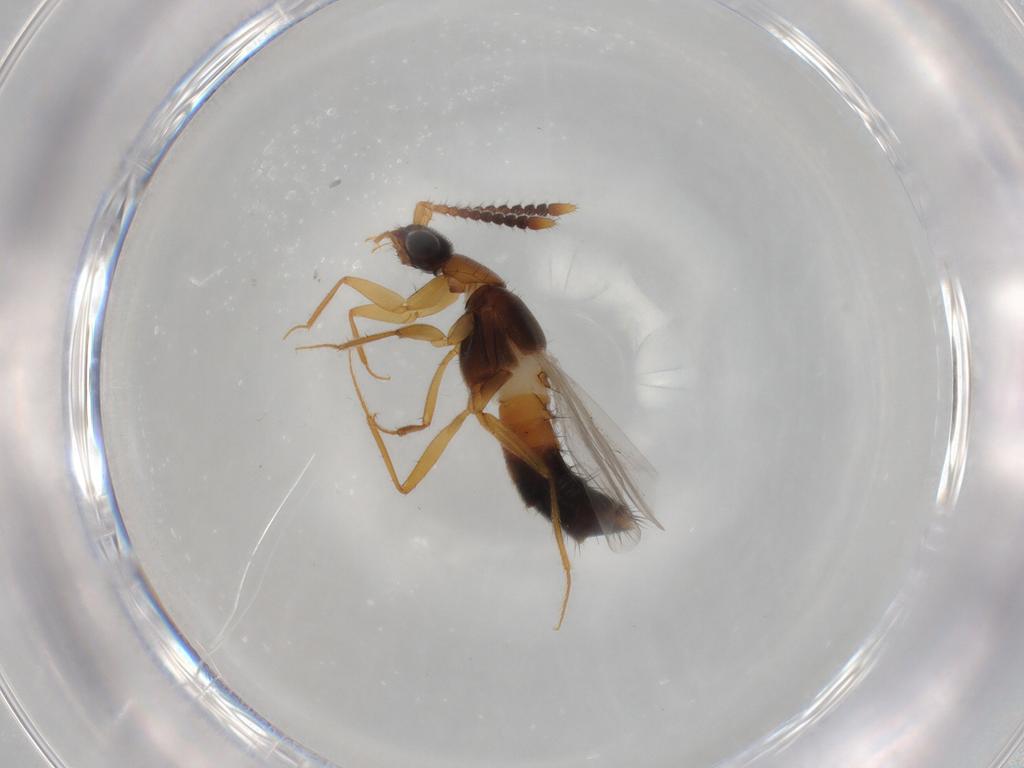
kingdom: Animalia
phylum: Arthropoda
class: Insecta
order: Coleoptera
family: Staphylinidae
